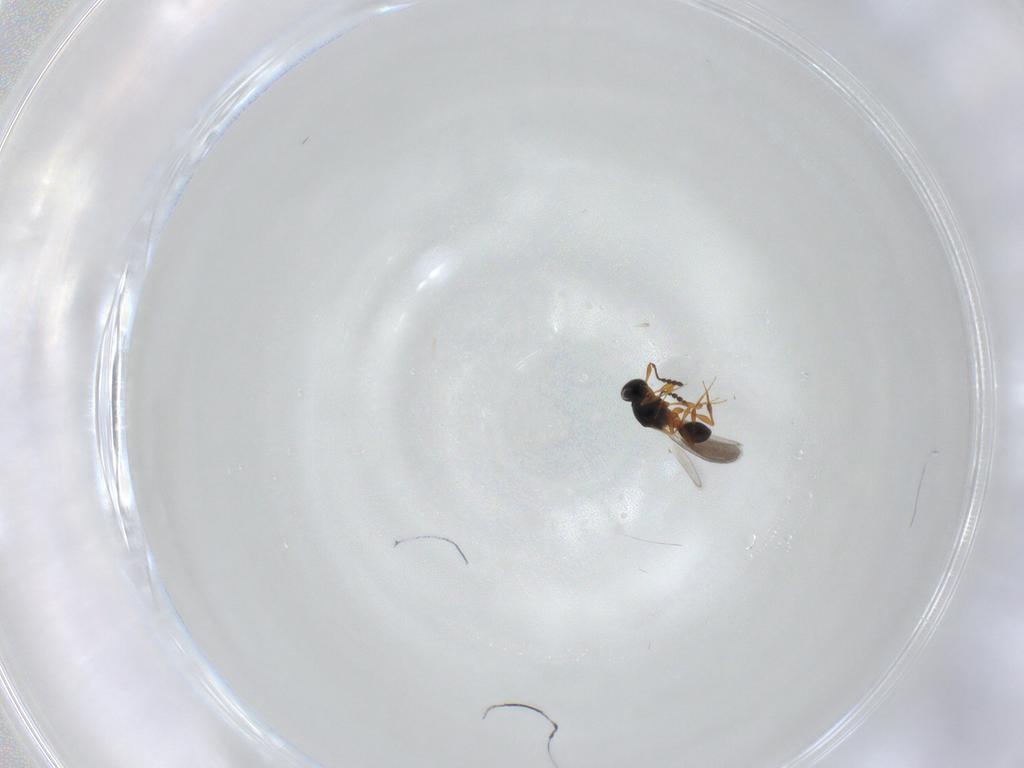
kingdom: Animalia
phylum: Arthropoda
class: Insecta
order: Hymenoptera
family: Platygastridae
